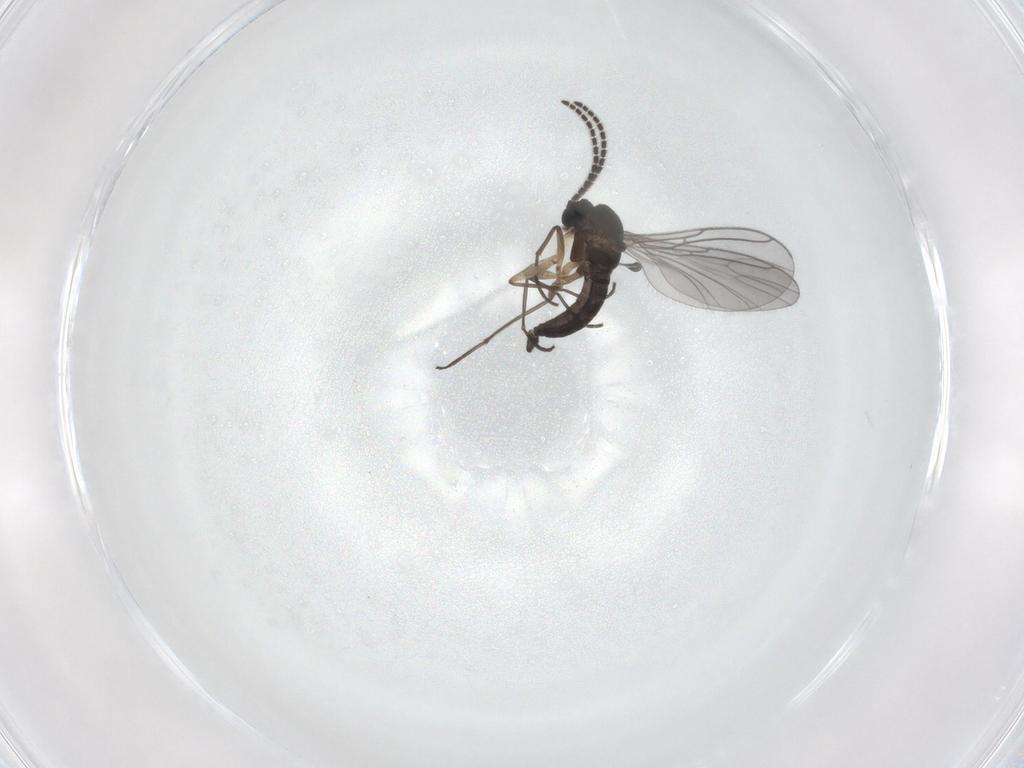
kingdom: Animalia
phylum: Arthropoda
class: Insecta
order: Diptera
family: Sciaridae
